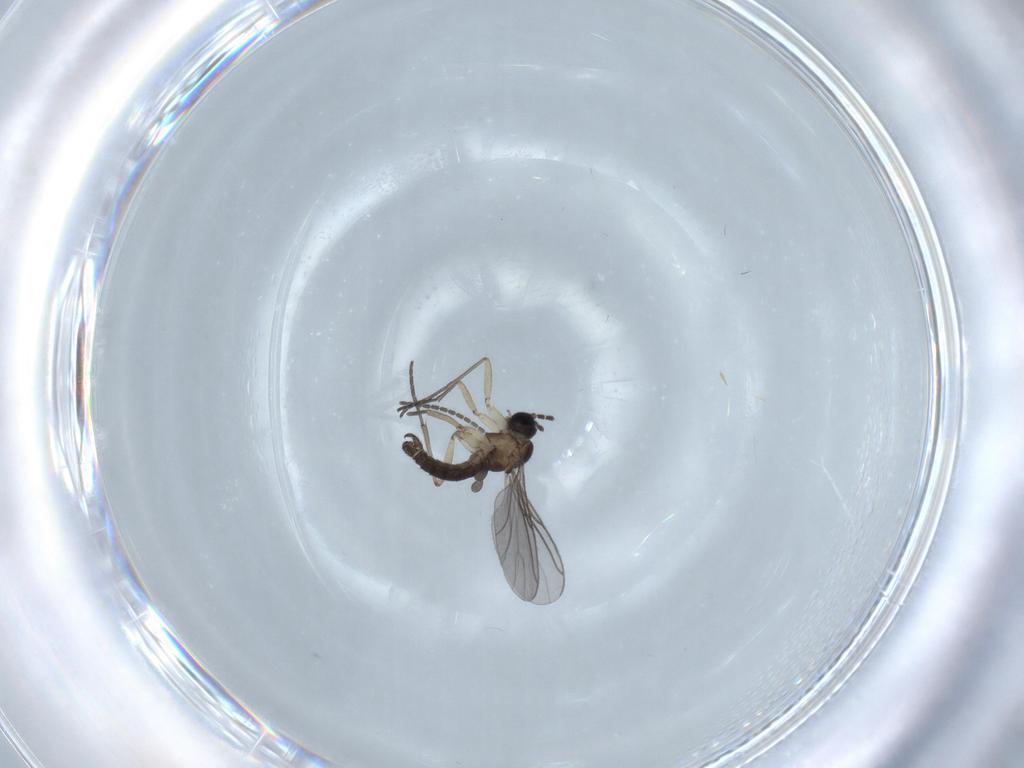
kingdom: Animalia
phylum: Arthropoda
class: Insecta
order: Diptera
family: Sciaridae
